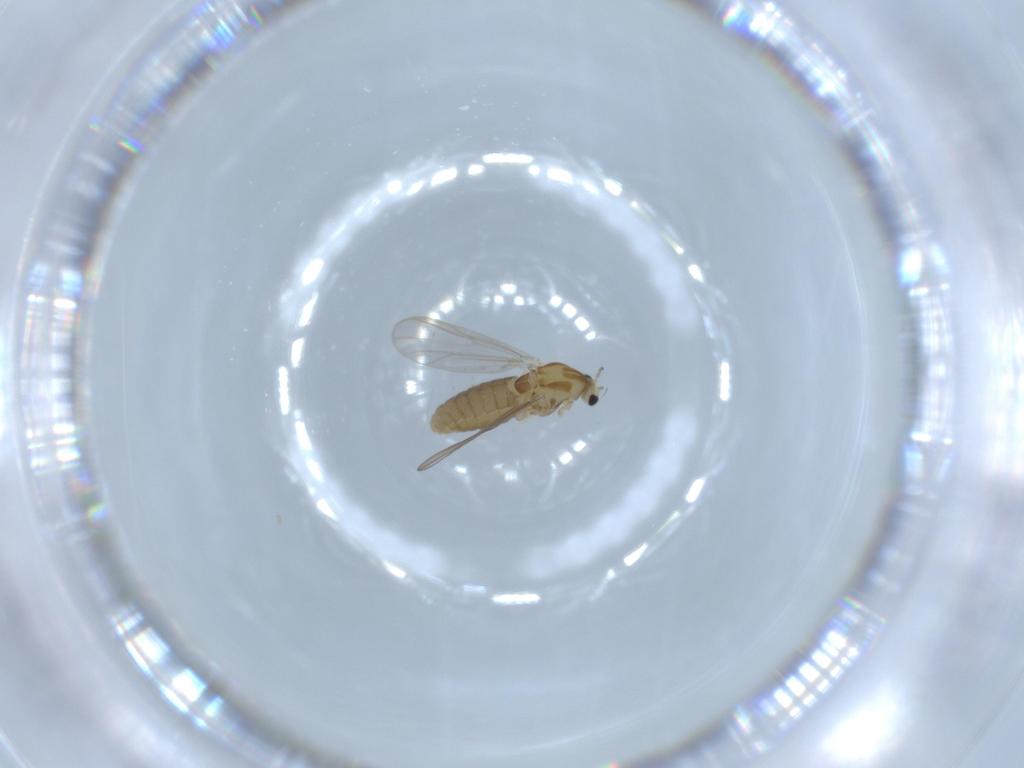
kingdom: Animalia
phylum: Arthropoda
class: Insecta
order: Diptera
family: Chironomidae
